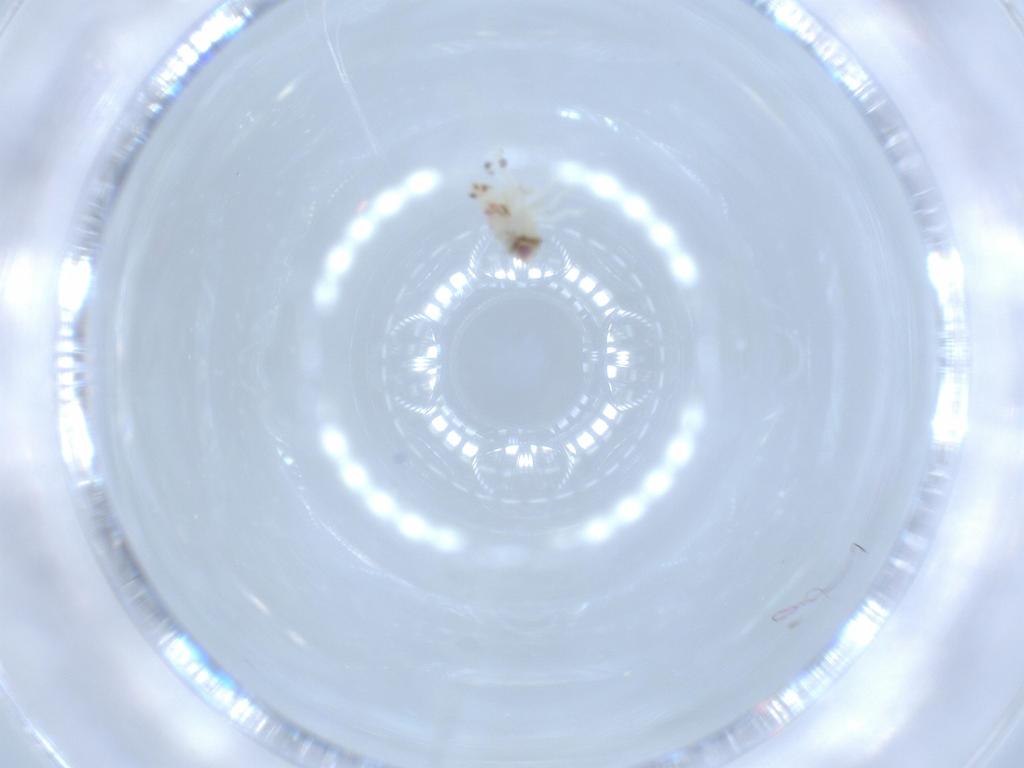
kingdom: Animalia
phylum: Arthropoda
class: Insecta
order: Hemiptera
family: Nogodinidae
